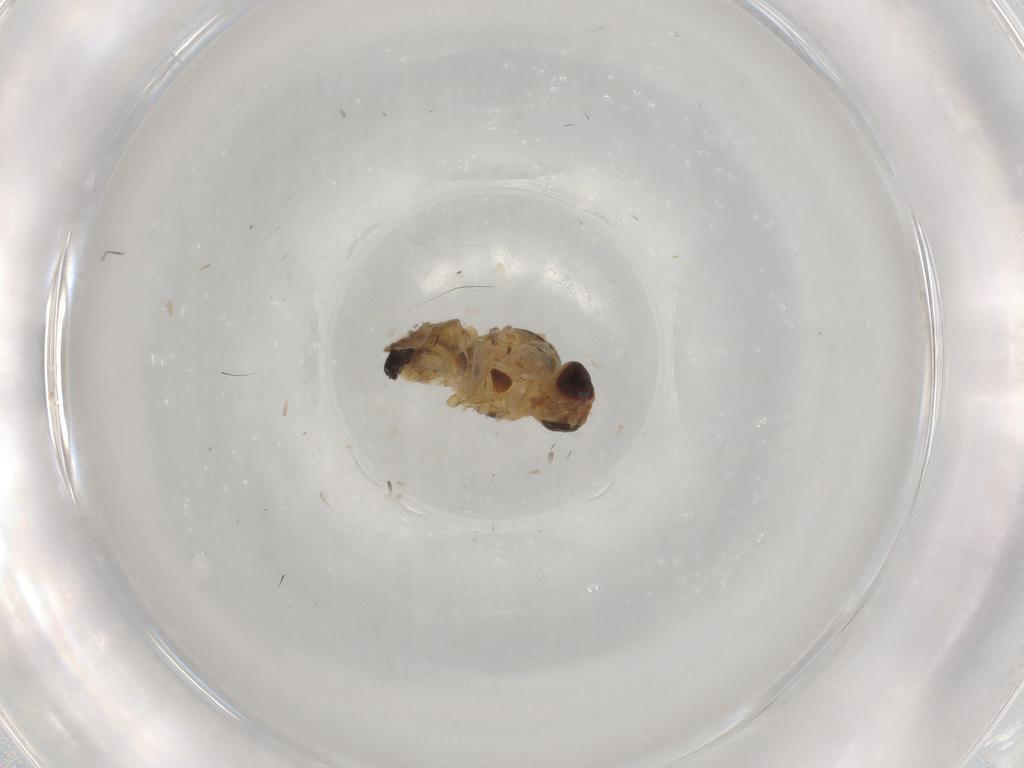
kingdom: Animalia
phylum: Arthropoda
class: Insecta
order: Diptera
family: Agromyzidae
